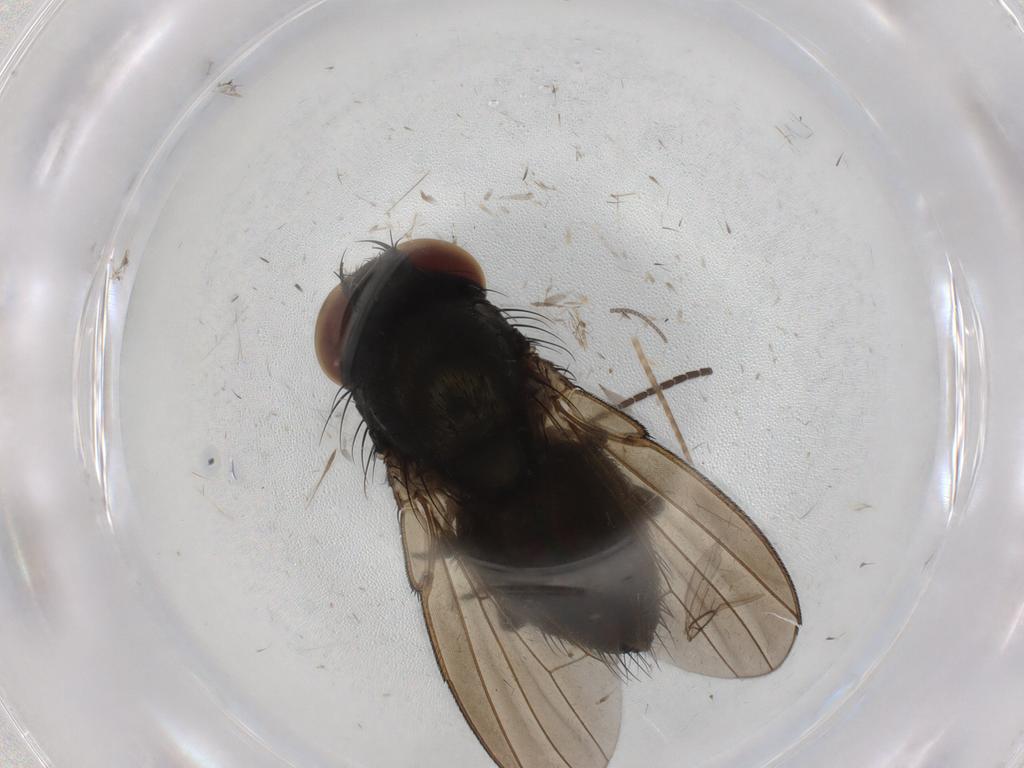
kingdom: Animalia
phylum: Arthropoda
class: Insecta
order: Diptera
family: Milichiidae
